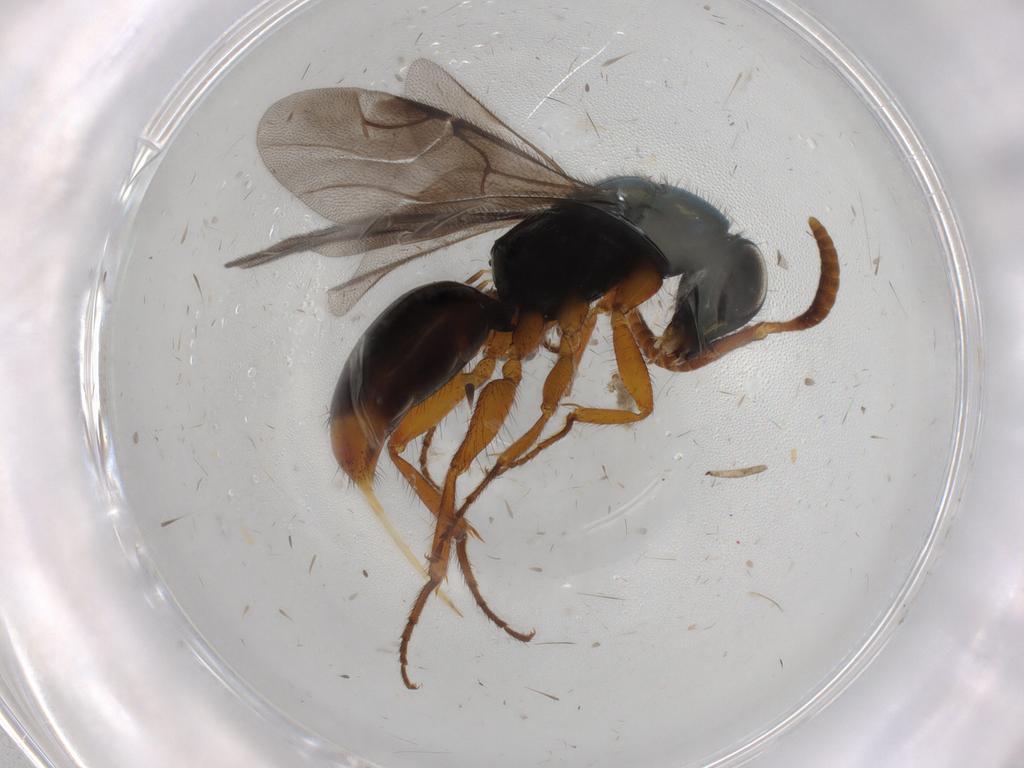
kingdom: Animalia
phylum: Arthropoda
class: Insecta
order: Hymenoptera
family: Chrysididae
